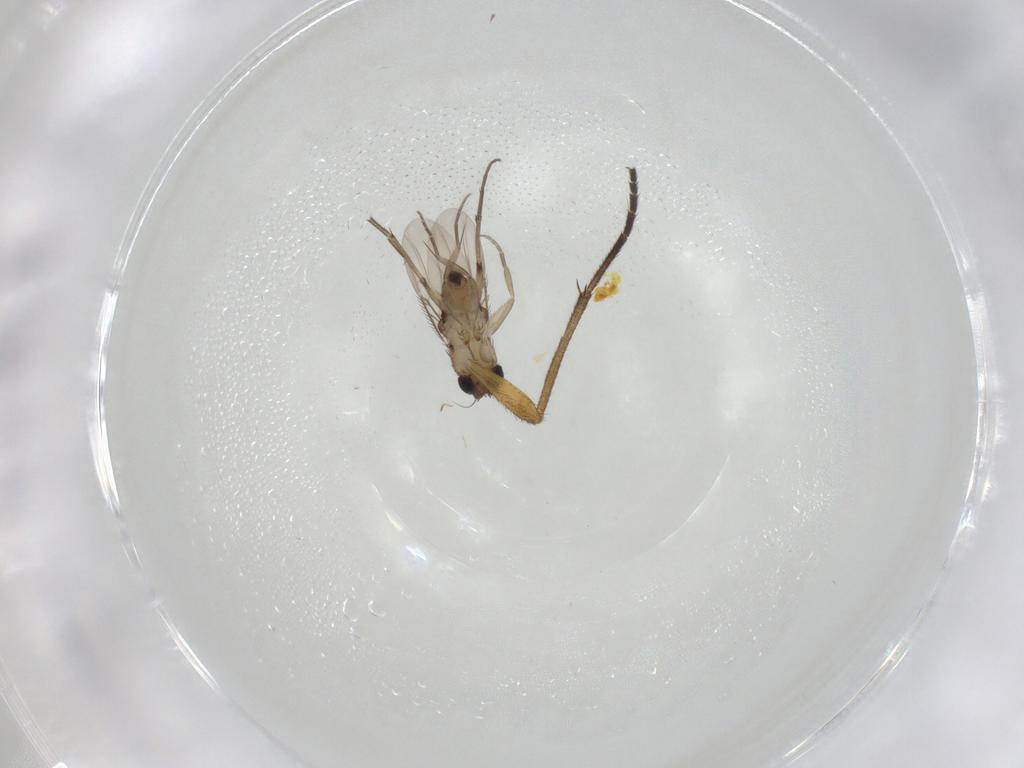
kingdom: Animalia
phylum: Arthropoda
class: Insecta
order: Diptera
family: Phoridae
